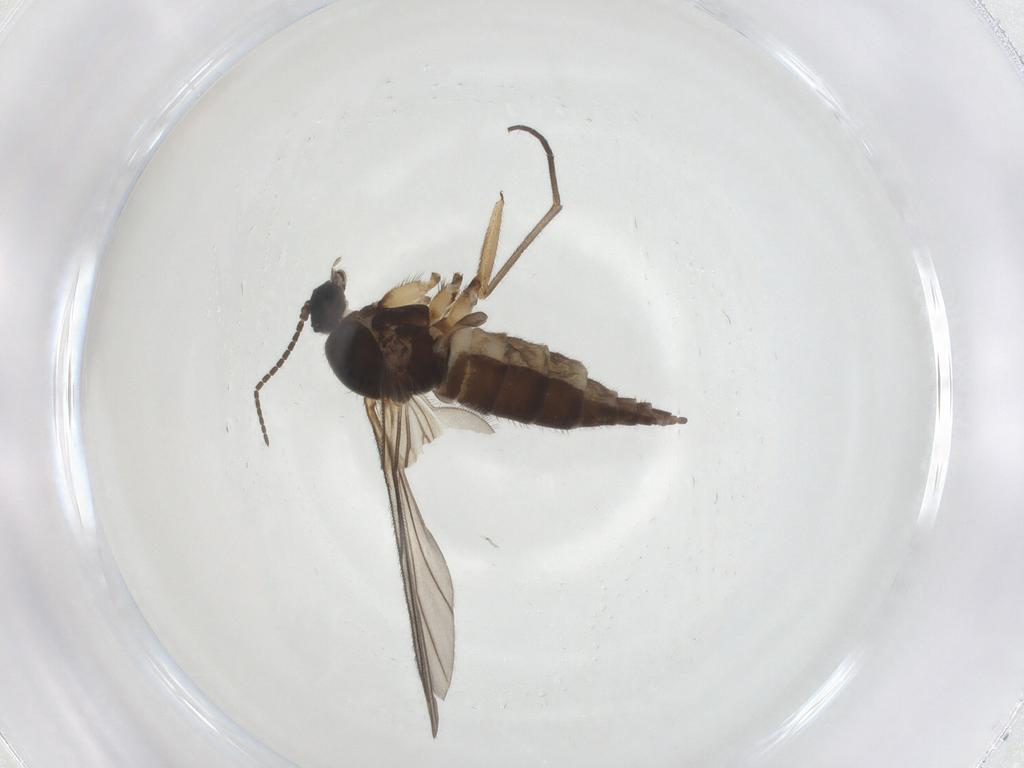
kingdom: Animalia
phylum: Arthropoda
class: Insecta
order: Diptera
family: Sciaridae
